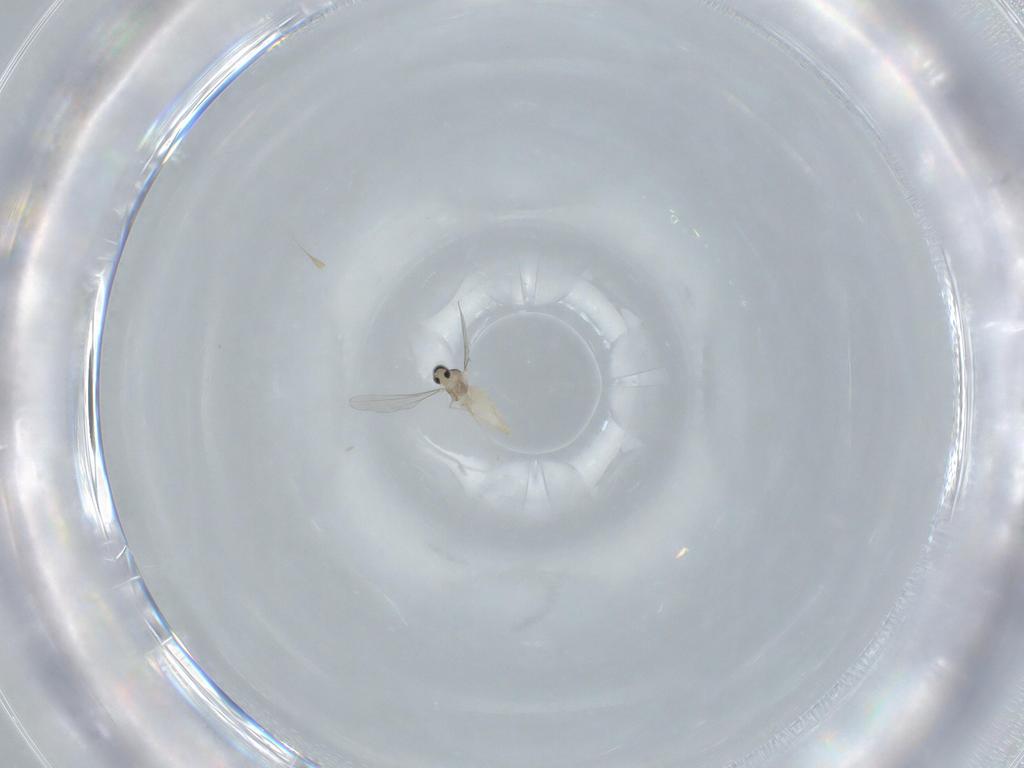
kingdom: Animalia
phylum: Arthropoda
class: Insecta
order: Diptera
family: Cecidomyiidae
